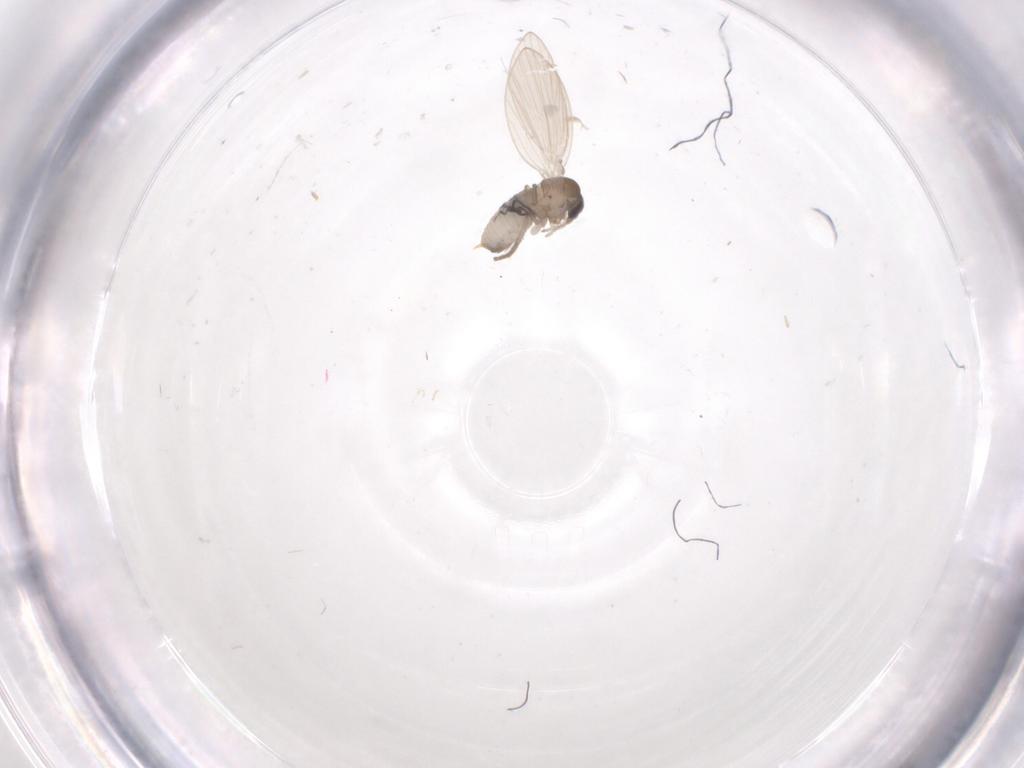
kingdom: Animalia
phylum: Arthropoda
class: Insecta
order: Diptera
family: Psychodidae
